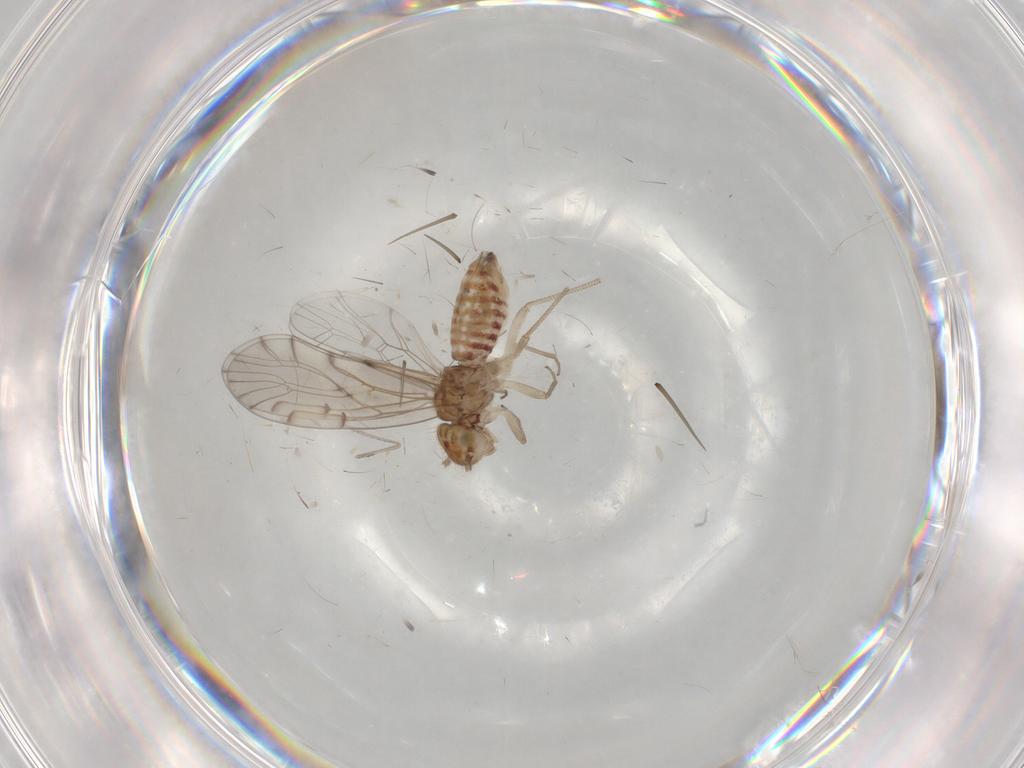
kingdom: Animalia
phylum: Arthropoda
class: Insecta
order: Diptera
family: Cecidomyiidae
